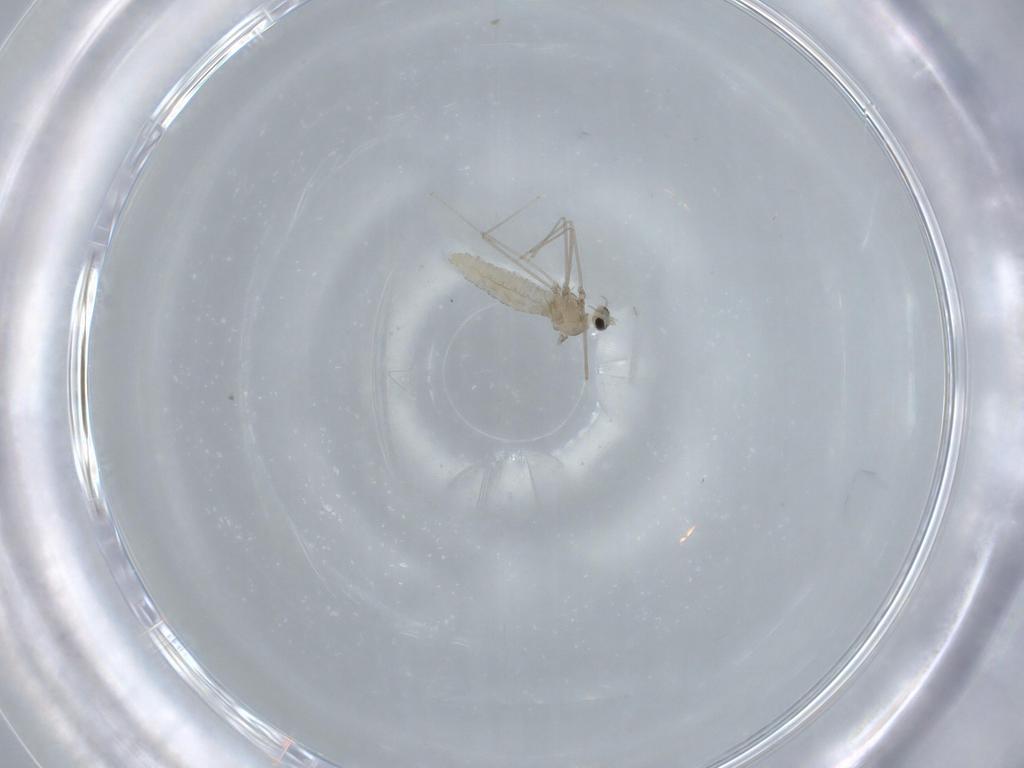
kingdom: Animalia
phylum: Arthropoda
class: Insecta
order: Diptera
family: Cecidomyiidae
